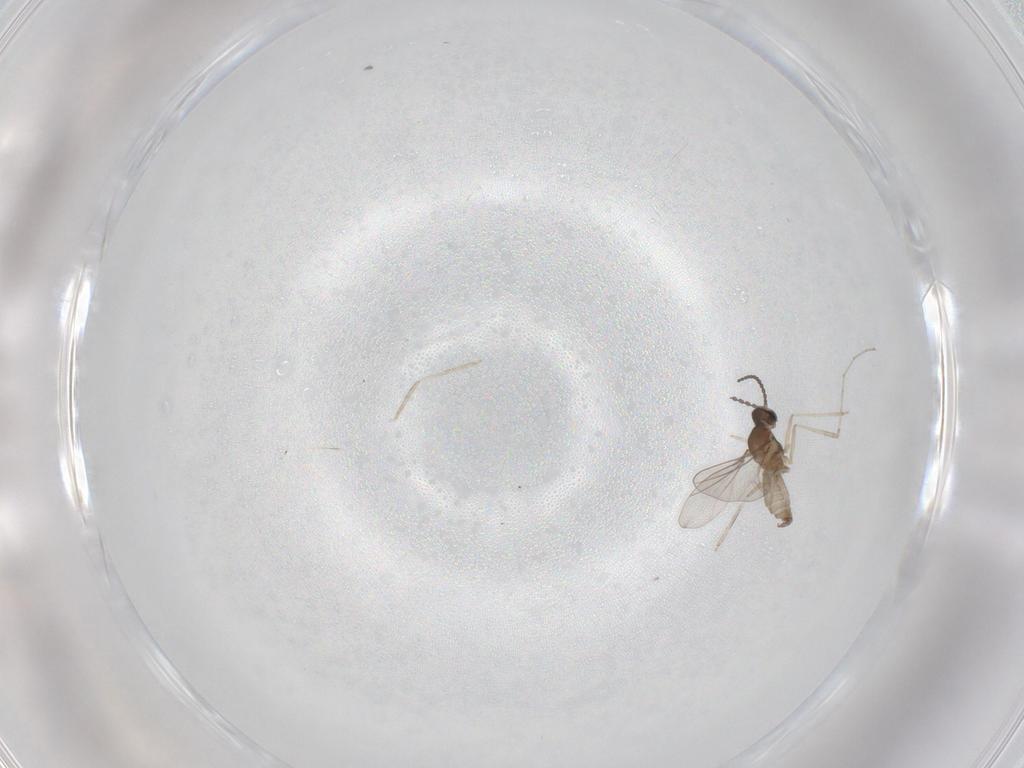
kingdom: Animalia
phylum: Arthropoda
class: Insecta
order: Diptera
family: Cecidomyiidae
